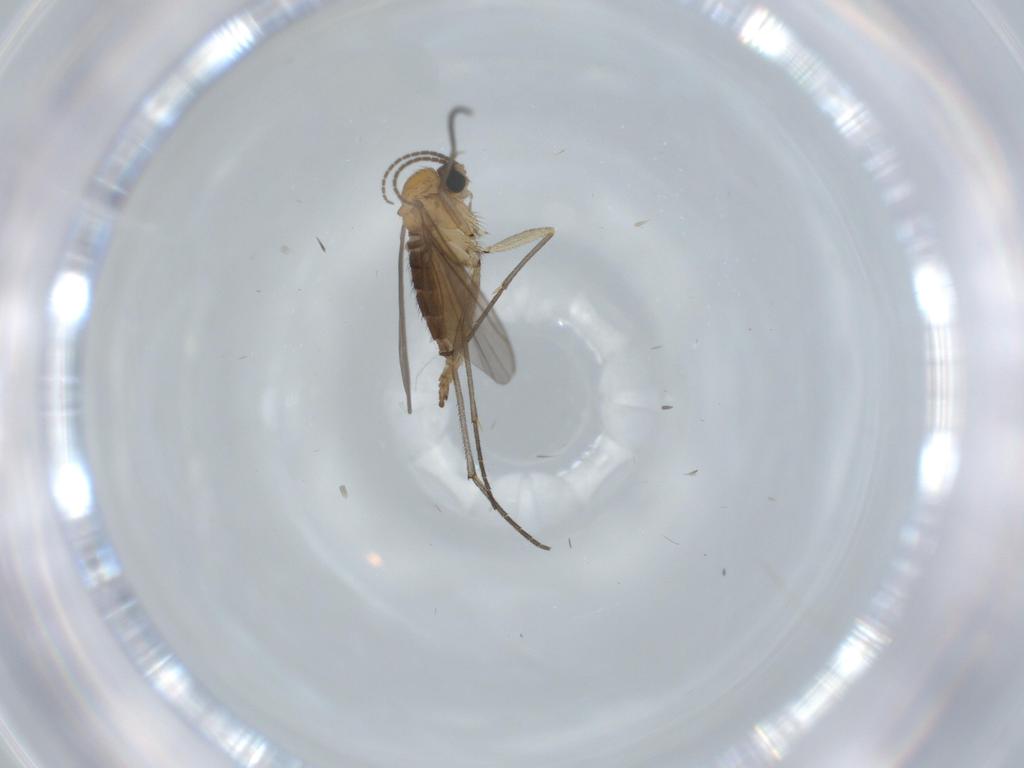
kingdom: Animalia
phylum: Arthropoda
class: Insecta
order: Diptera
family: Sciaridae
